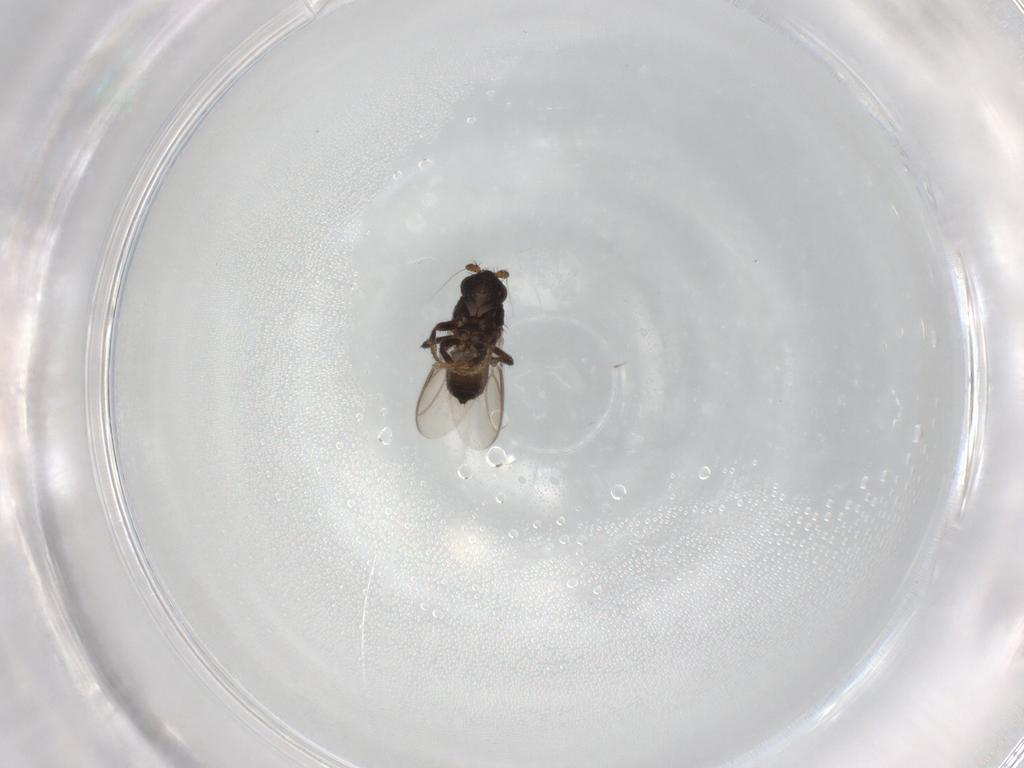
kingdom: Animalia
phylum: Arthropoda
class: Insecta
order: Diptera
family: Sphaeroceridae
